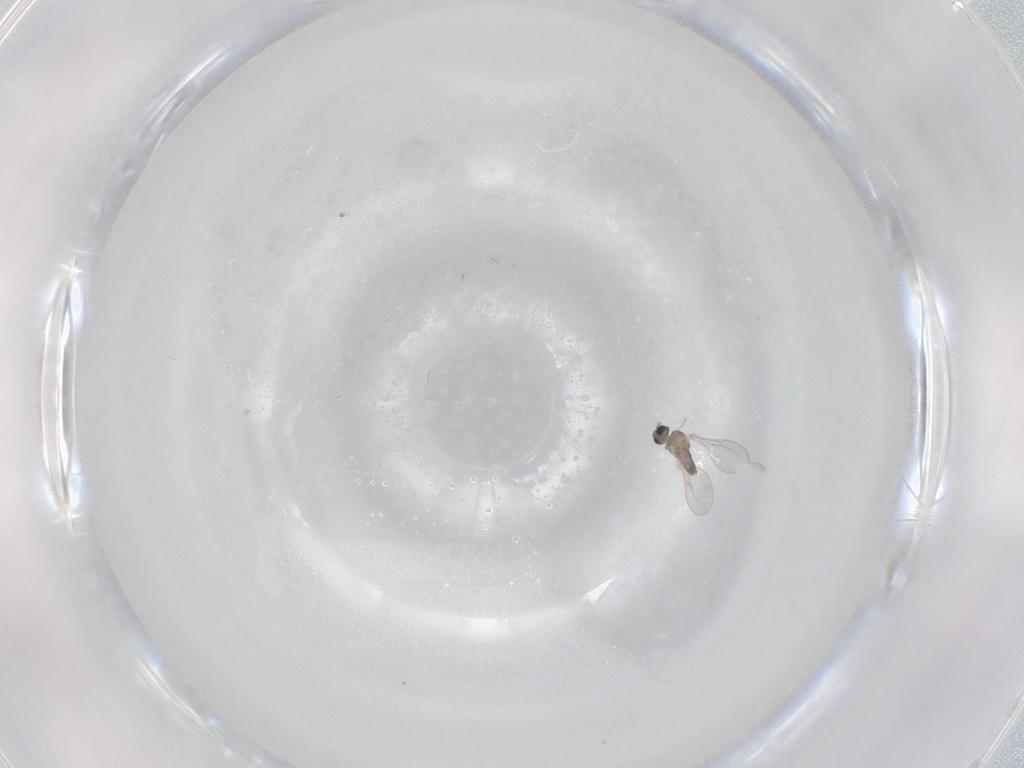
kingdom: Animalia
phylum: Arthropoda
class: Insecta
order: Diptera
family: Cecidomyiidae
